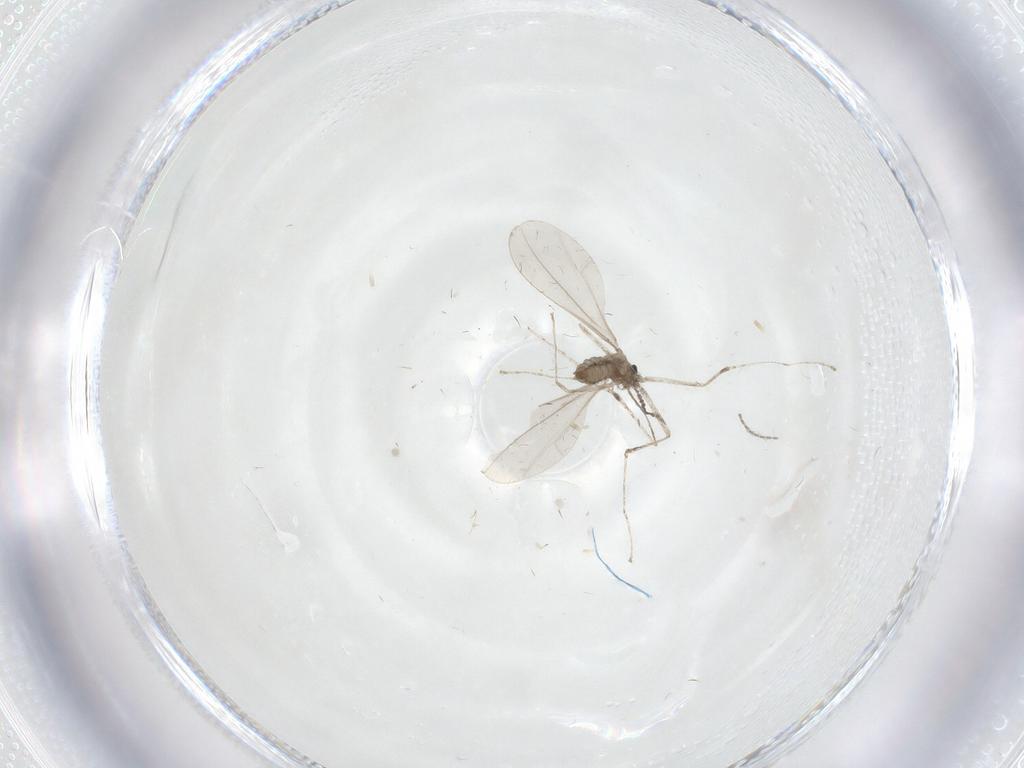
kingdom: Animalia
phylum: Arthropoda
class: Insecta
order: Diptera
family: Cecidomyiidae
